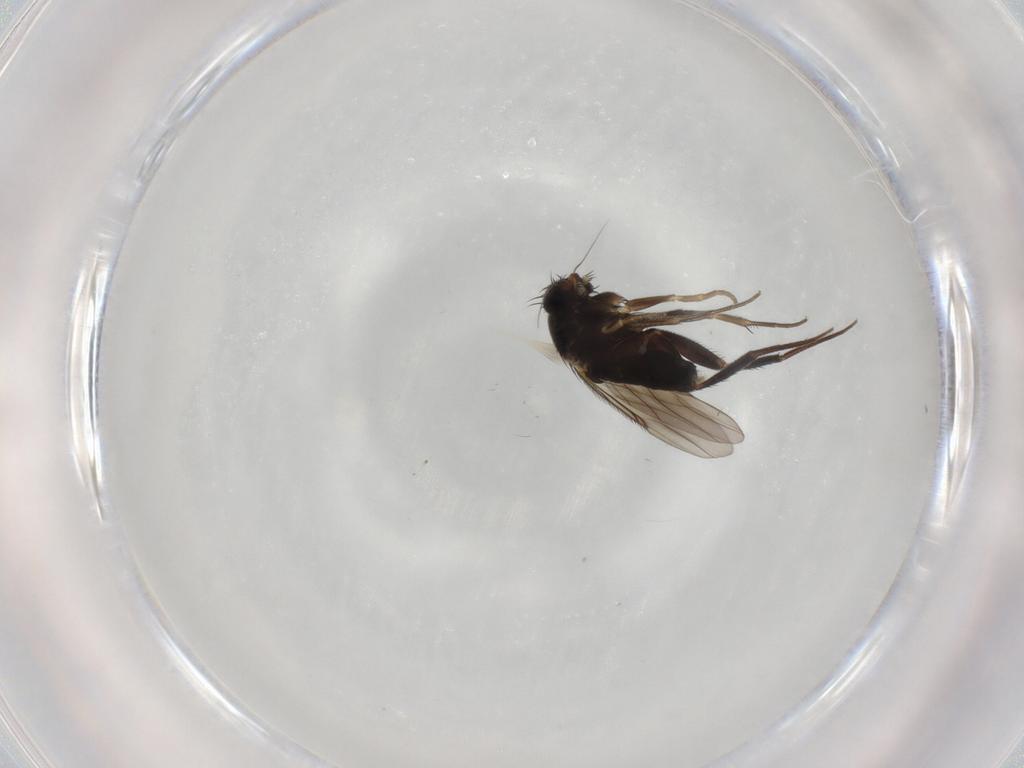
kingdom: Animalia
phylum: Arthropoda
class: Insecta
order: Diptera
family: Phoridae
